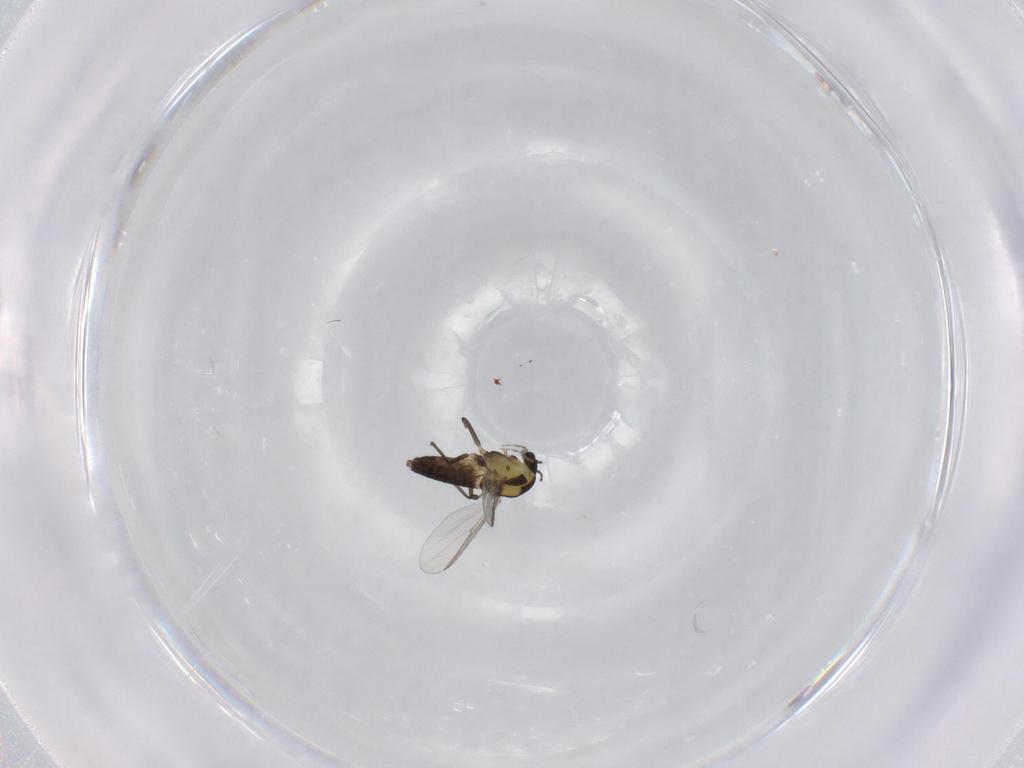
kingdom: Animalia
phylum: Arthropoda
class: Insecta
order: Diptera
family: Chironomidae
